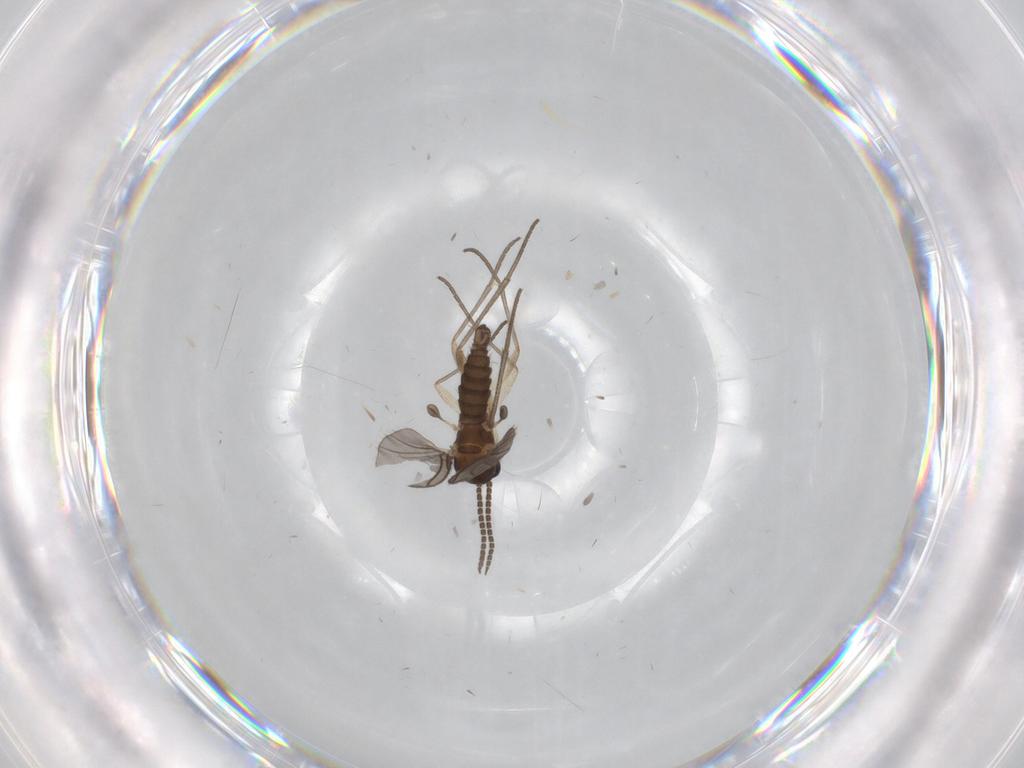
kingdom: Animalia
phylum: Arthropoda
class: Insecta
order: Diptera
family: Sciaridae
